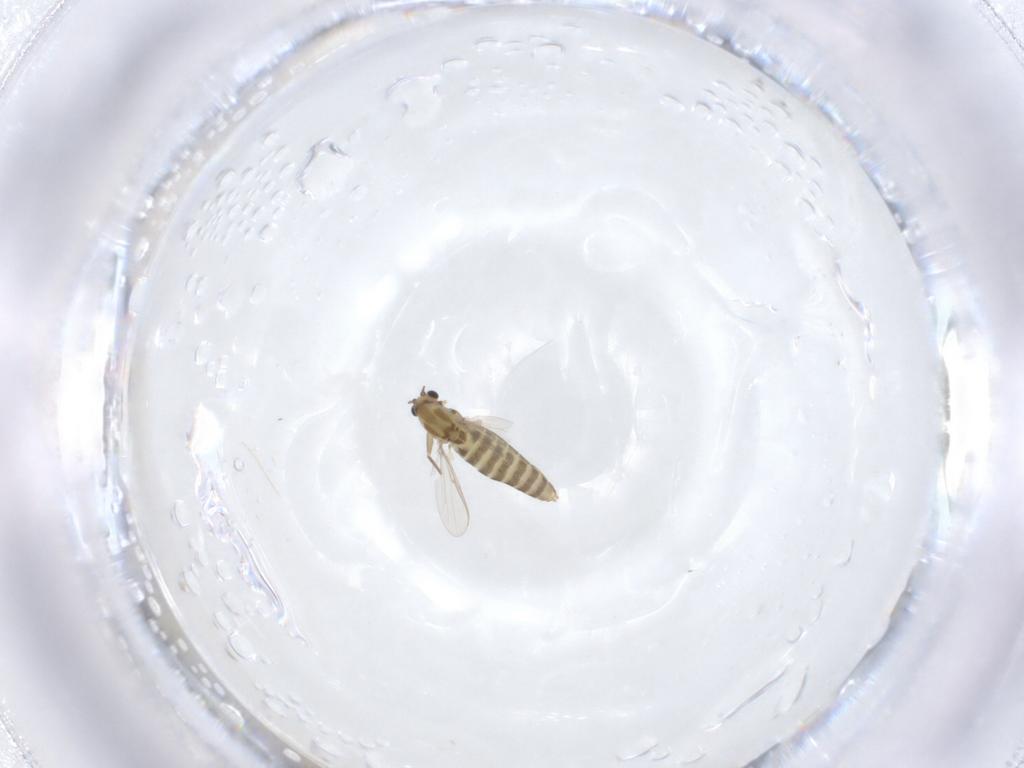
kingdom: Animalia
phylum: Arthropoda
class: Insecta
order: Diptera
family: Chironomidae
